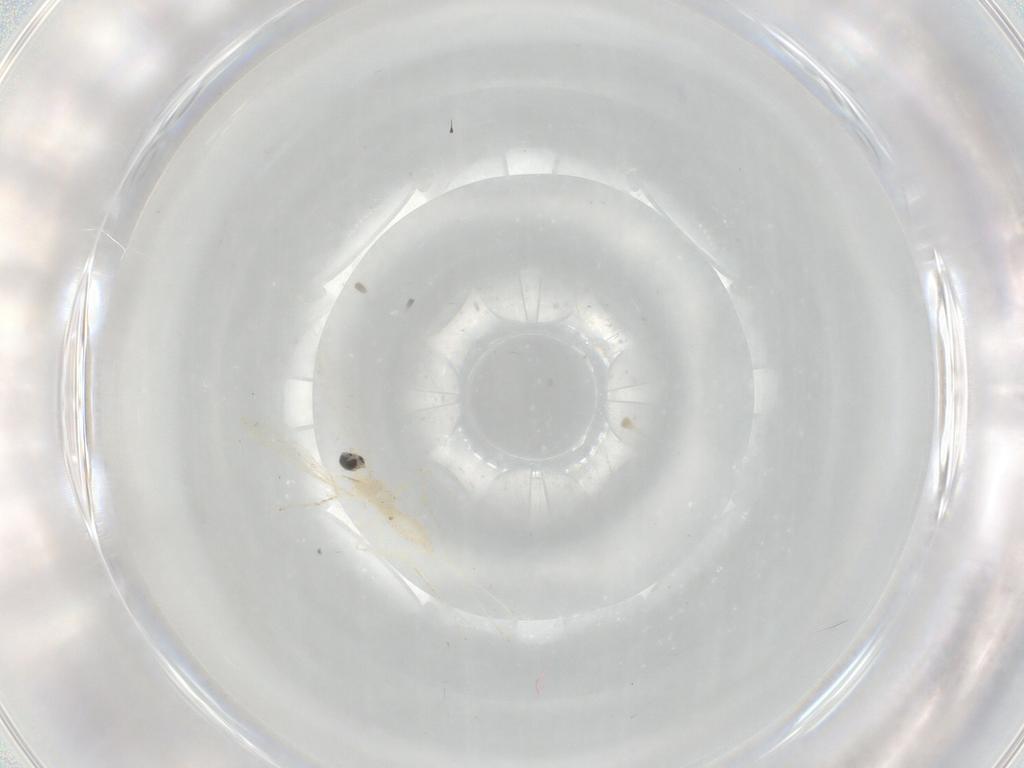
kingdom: Animalia
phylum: Arthropoda
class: Insecta
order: Diptera
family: Cecidomyiidae
